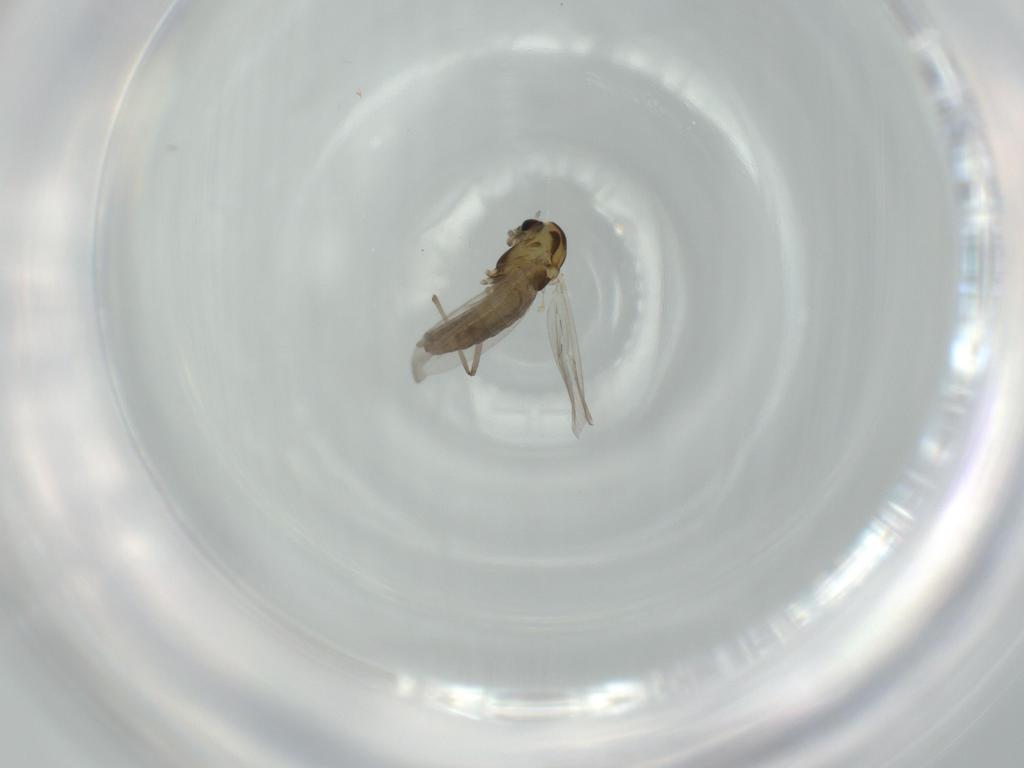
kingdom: Animalia
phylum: Arthropoda
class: Insecta
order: Diptera
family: Chironomidae
